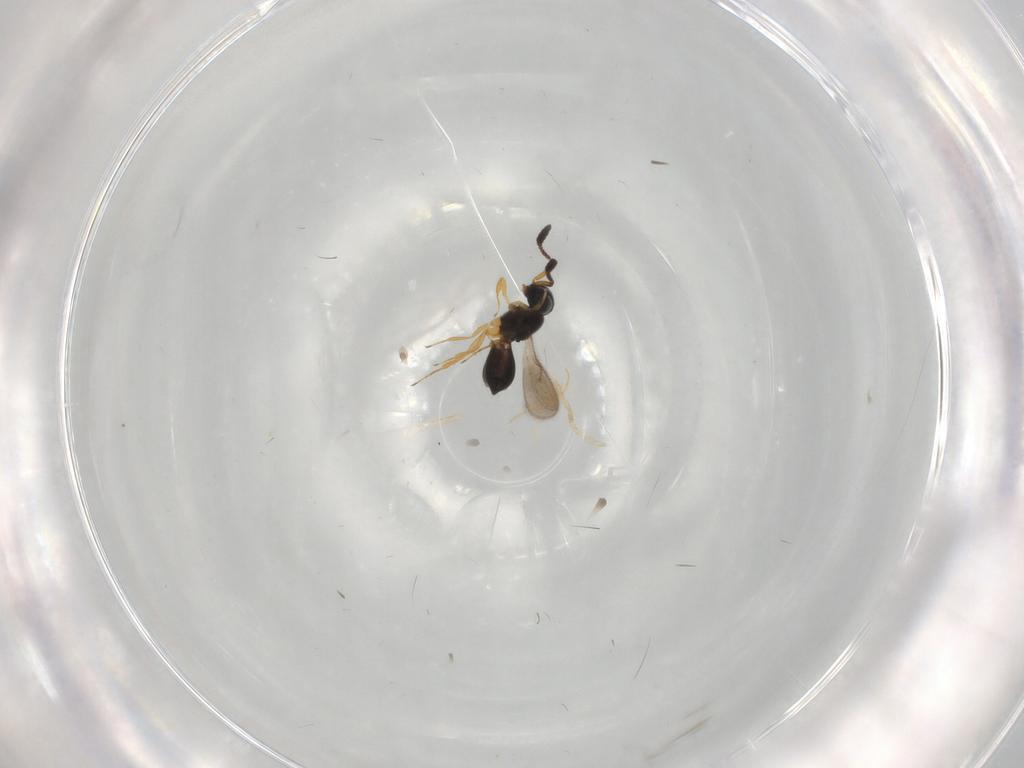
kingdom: Animalia
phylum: Arthropoda
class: Insecta
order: Hymenoptera
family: Scelionidae
